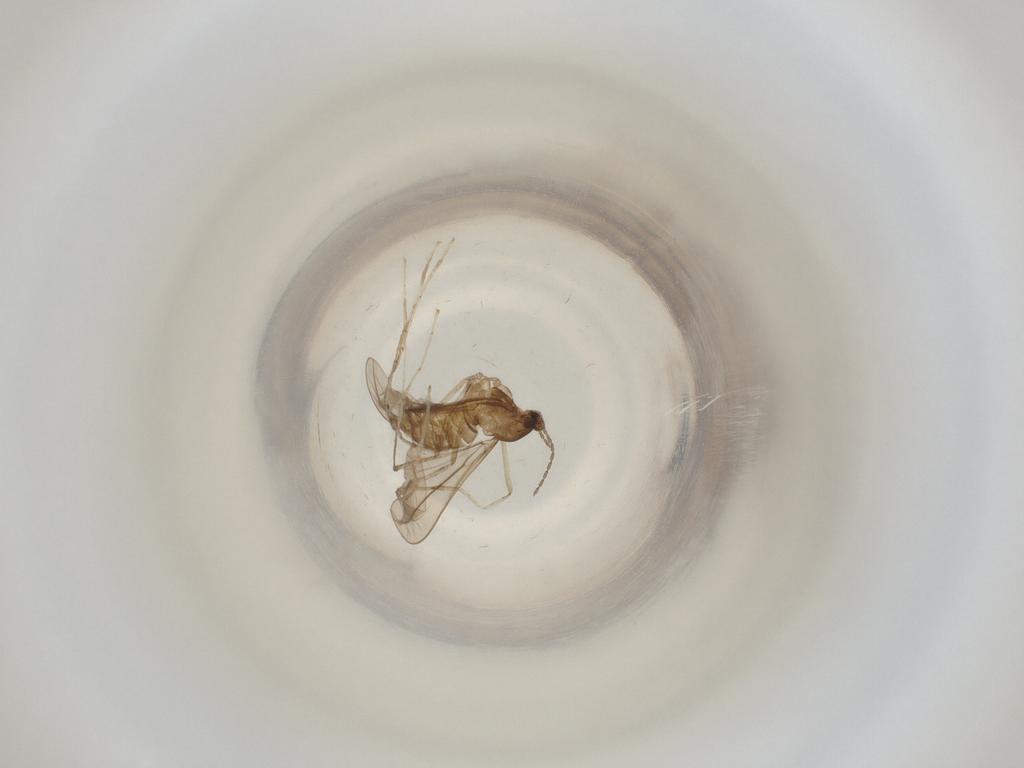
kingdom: Animalia
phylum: Arthropoda
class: Insecta
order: Diptera
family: Cecidomyiidae
